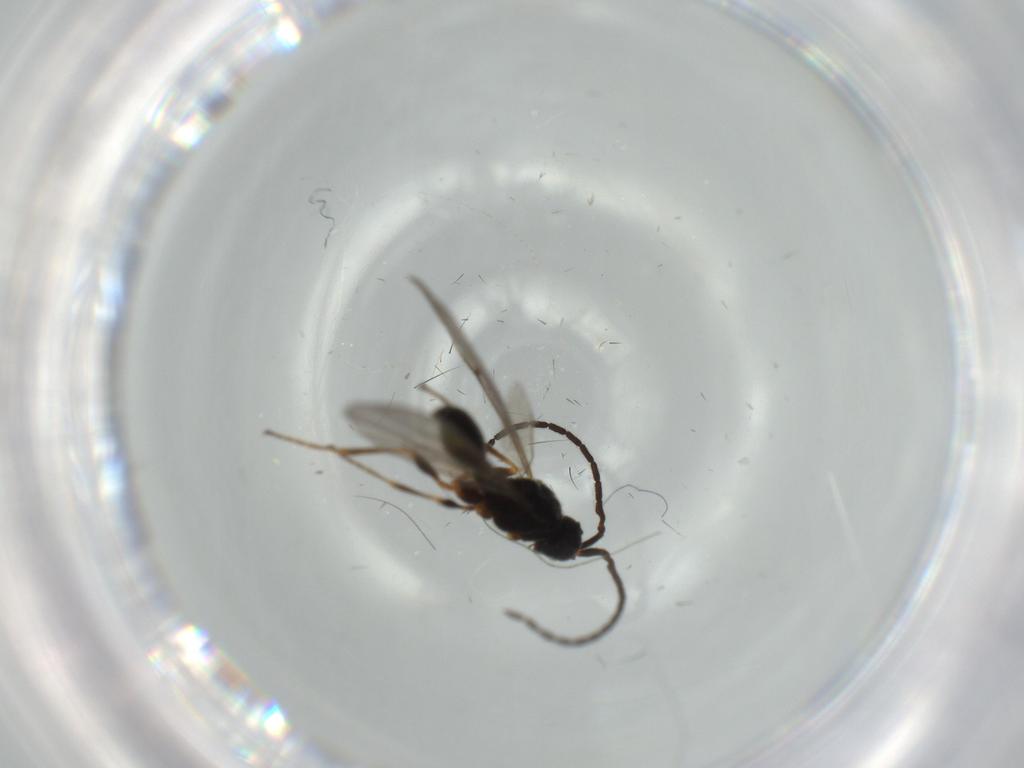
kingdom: Animalia
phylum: Arthropoda
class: Insecta
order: Hymenoptera
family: Diapriidae
